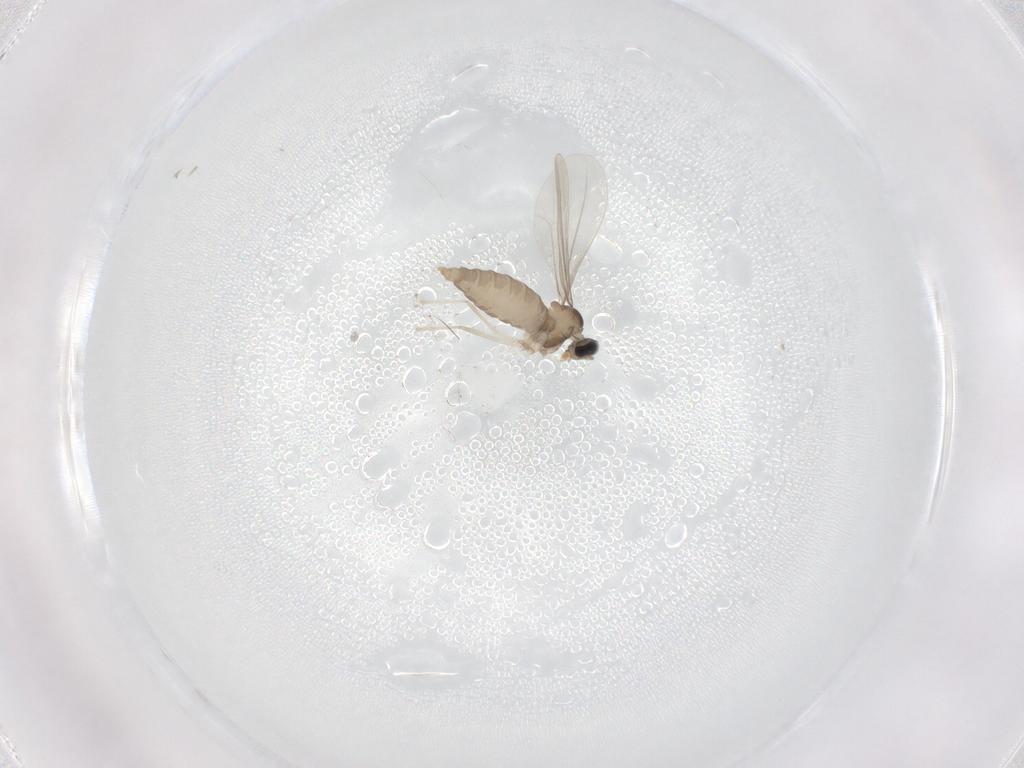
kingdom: Animalia
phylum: Arthropoda
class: Insecta
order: Diptera
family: Cecidomyiidae
